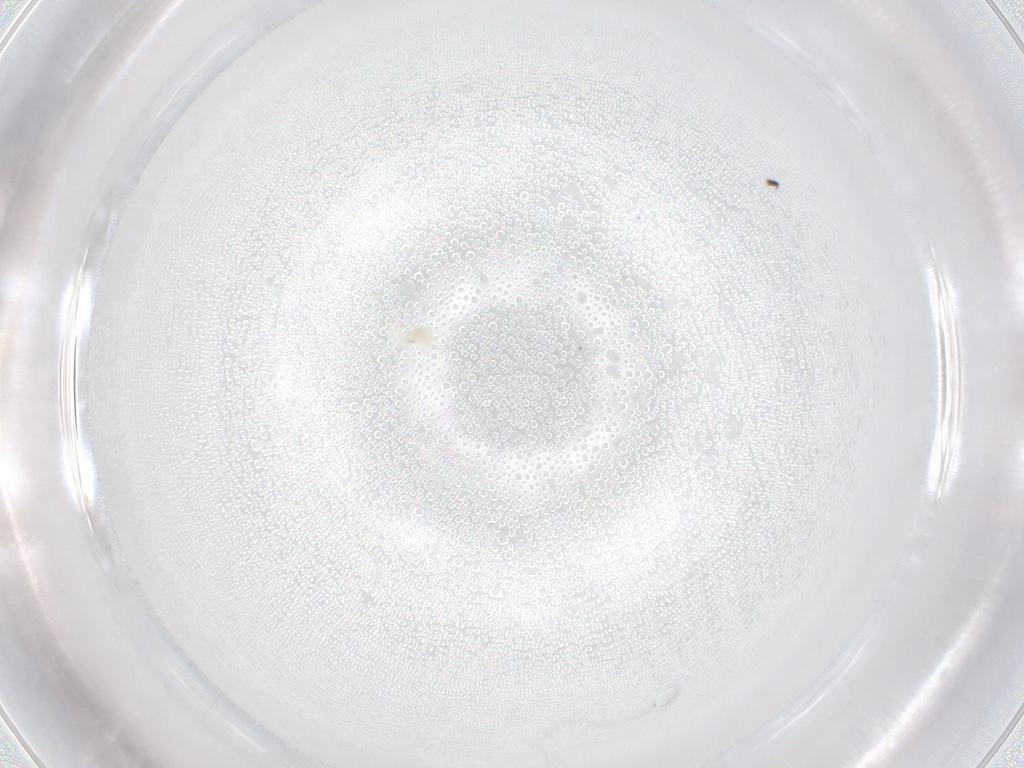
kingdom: Animalia
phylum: Arthropoda
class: Arachnida
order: Trombidiformes
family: Eupodidae
